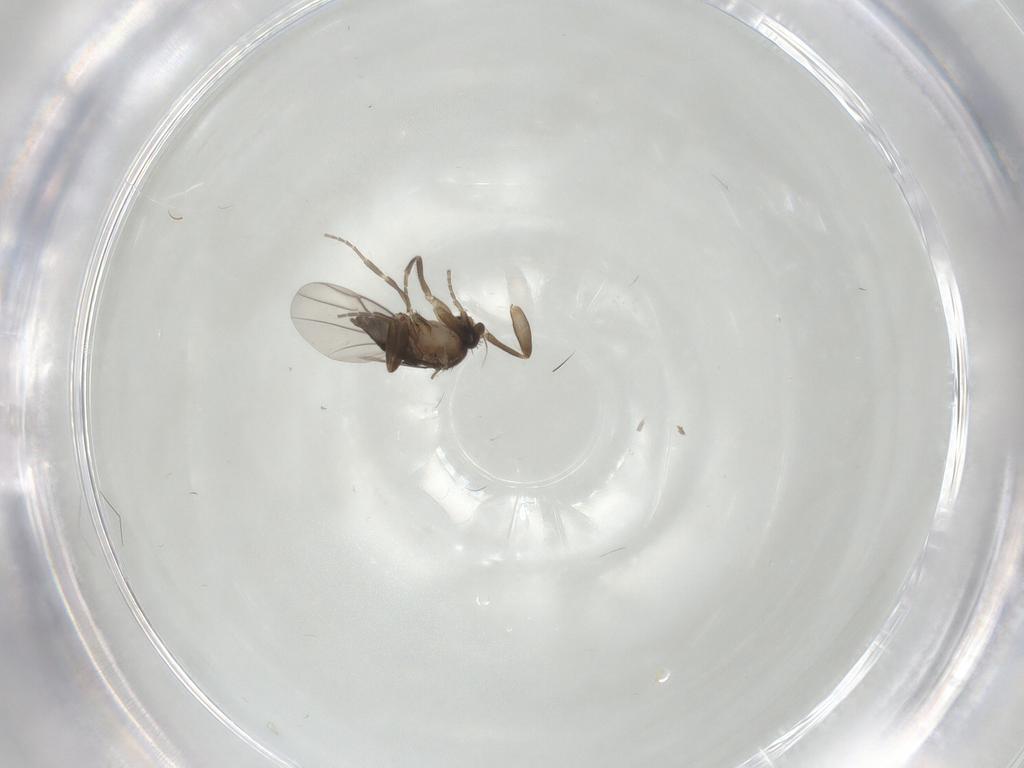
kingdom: Animalia
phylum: Arthropoda
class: Insecta
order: Diptera
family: Phoridae
